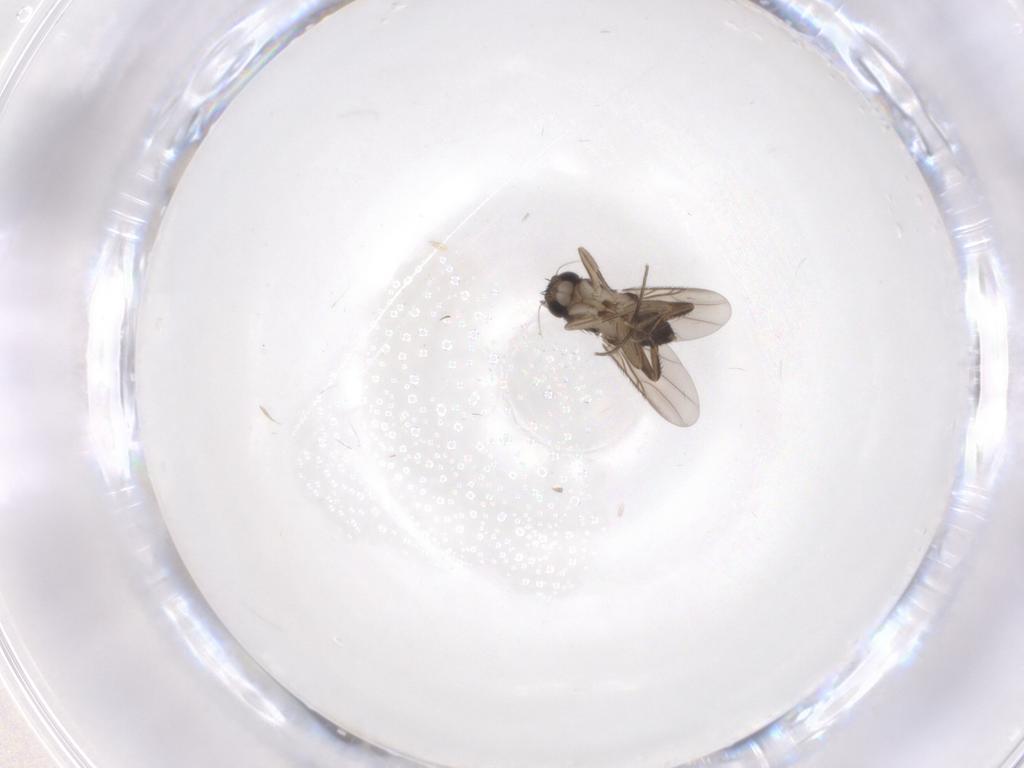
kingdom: Animalia
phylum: Arthropoda
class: Insecta
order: Diptera
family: Phoridae
